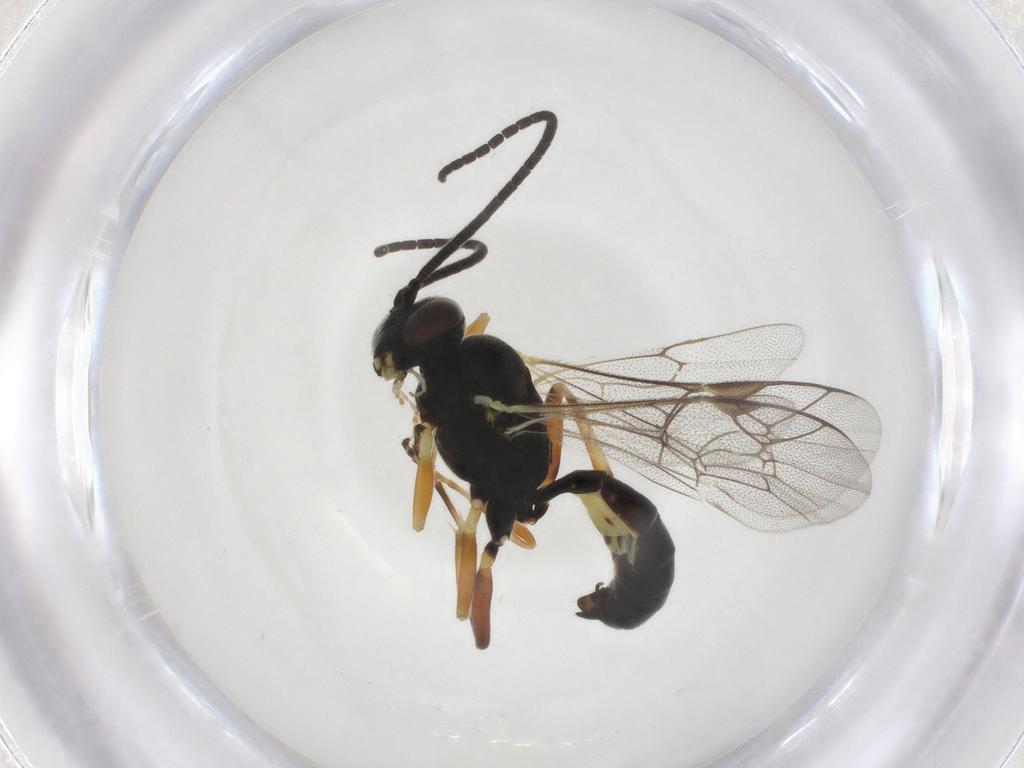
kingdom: Animalia
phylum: Arthropoda
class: Insecta
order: Hymenoptera
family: Ichneumonidae
